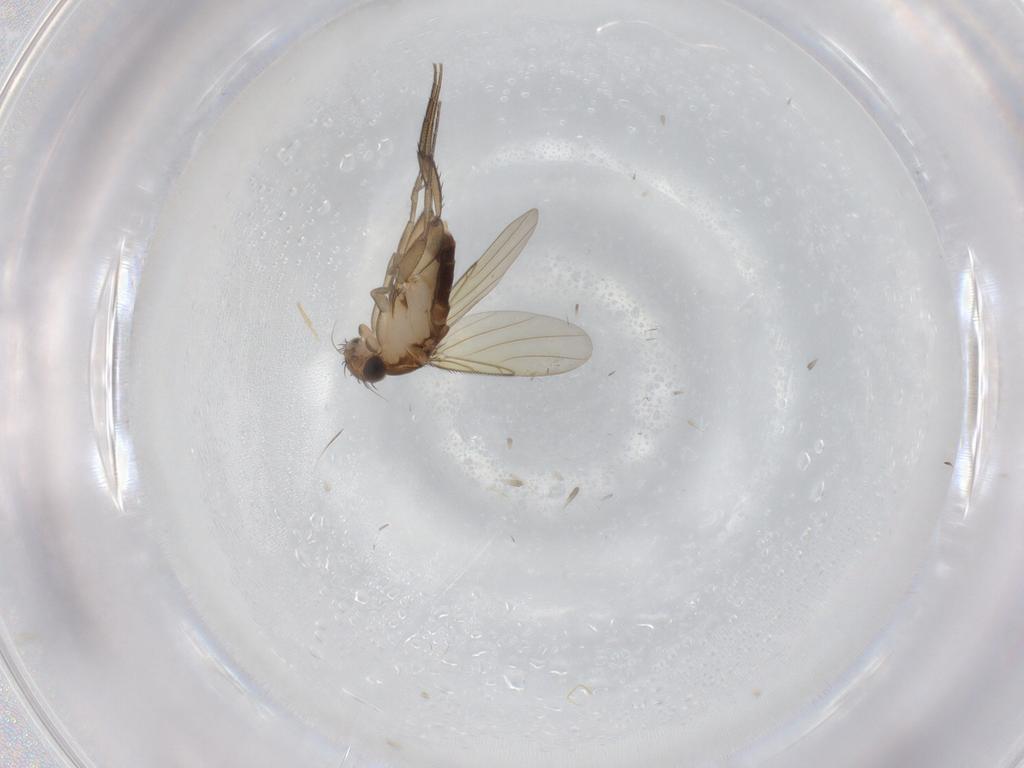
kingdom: Animalia
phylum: Arthropoda
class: Insecta
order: Diptera
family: Phoridae
